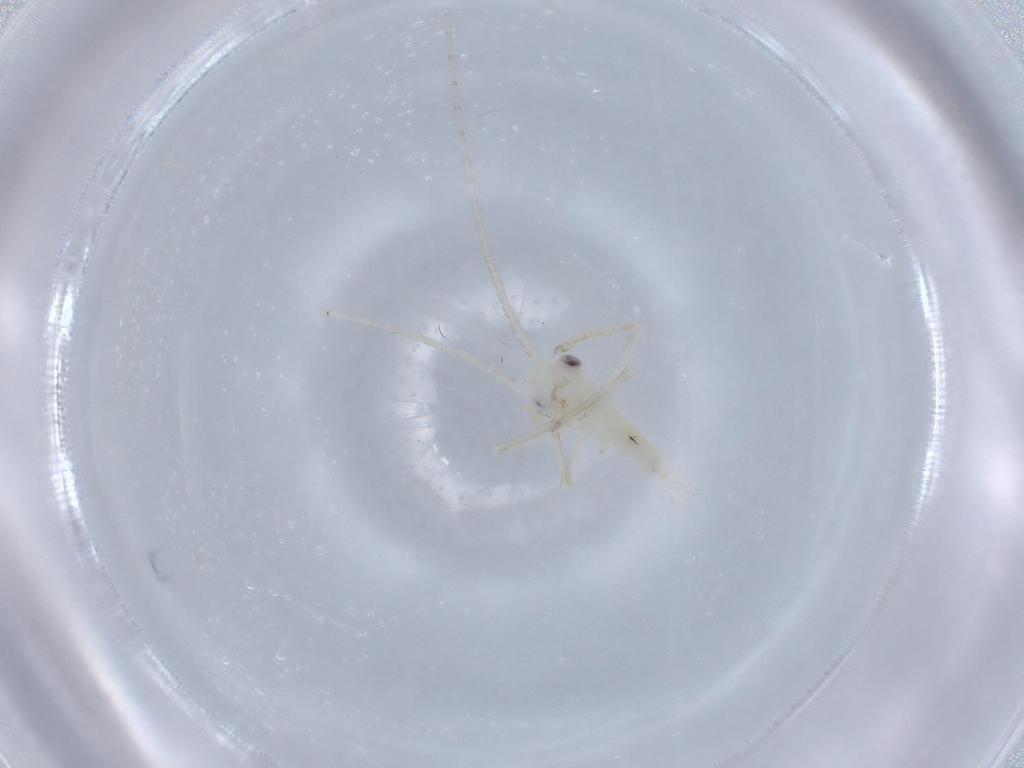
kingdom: Animalia
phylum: Arthropoda
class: Insecta
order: Orthoptera
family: Trigonidiidae
